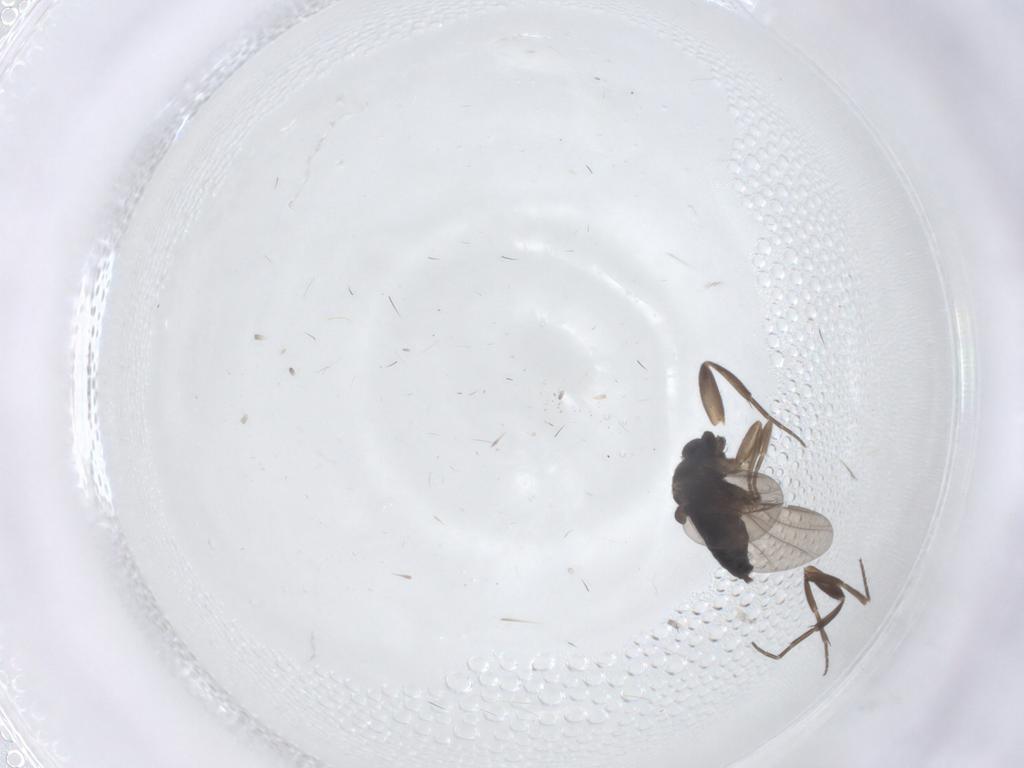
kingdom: Animalia
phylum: Arthropoda
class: Insecta
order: Diptera
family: Phoridae
